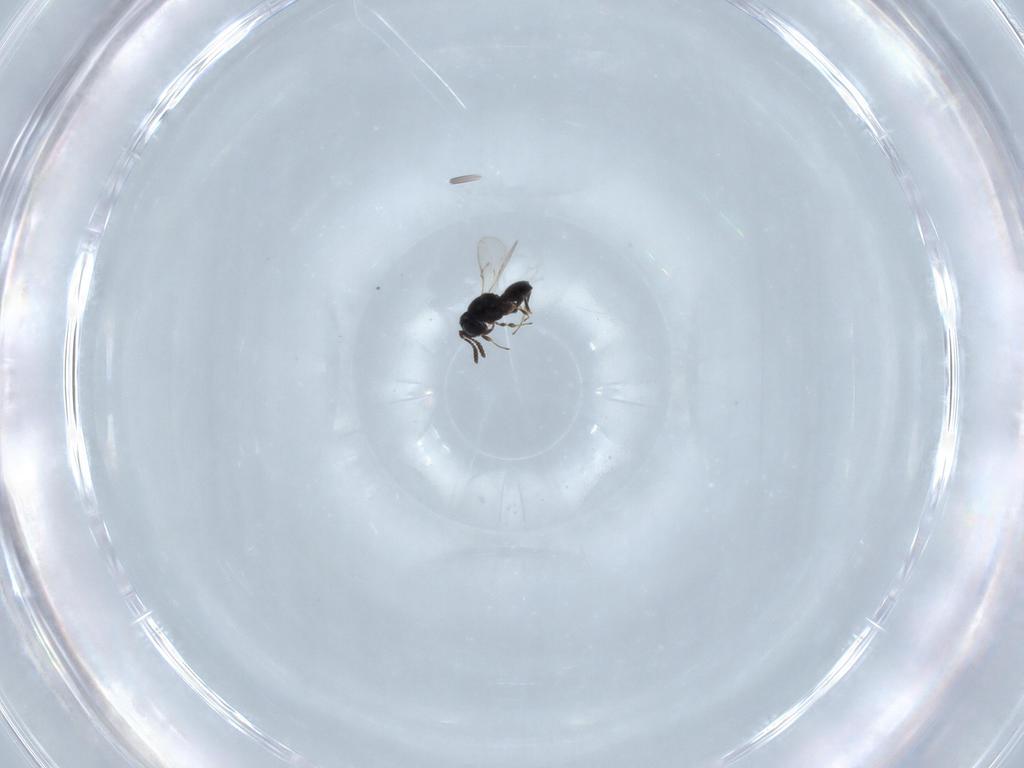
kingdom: Animalia
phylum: Arthropoda
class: Insecta
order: Hymenoptera
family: Scelionidae
